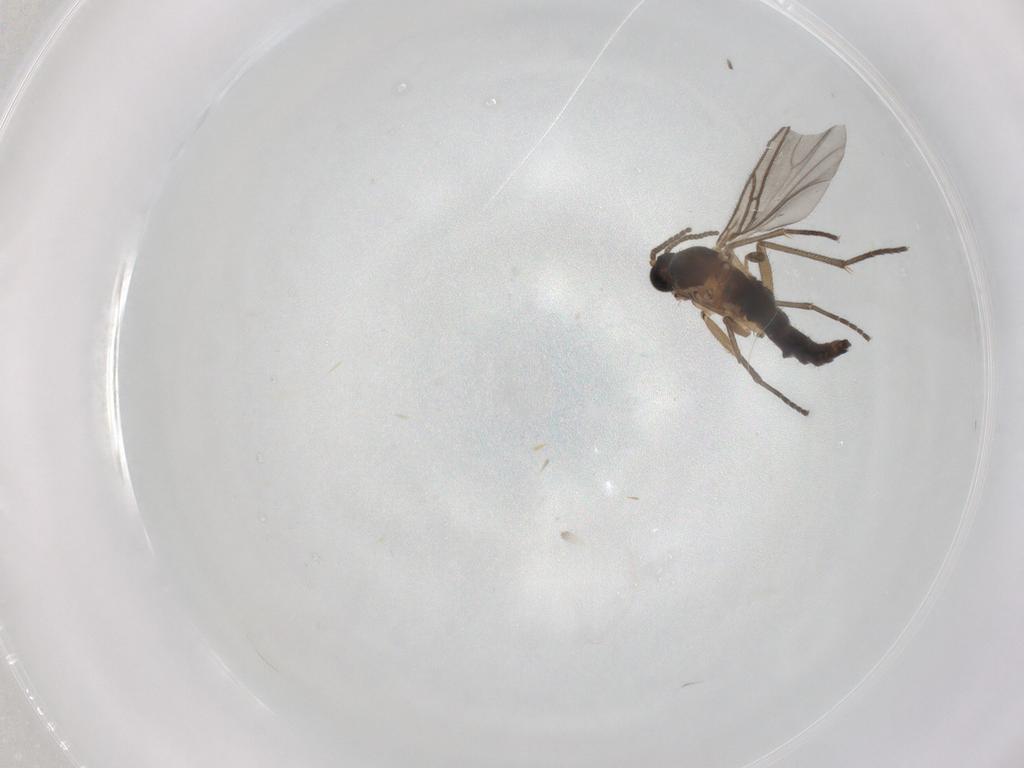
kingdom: Animalia
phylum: Arthropoda
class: Insecta
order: Diptera
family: Sciaridae
